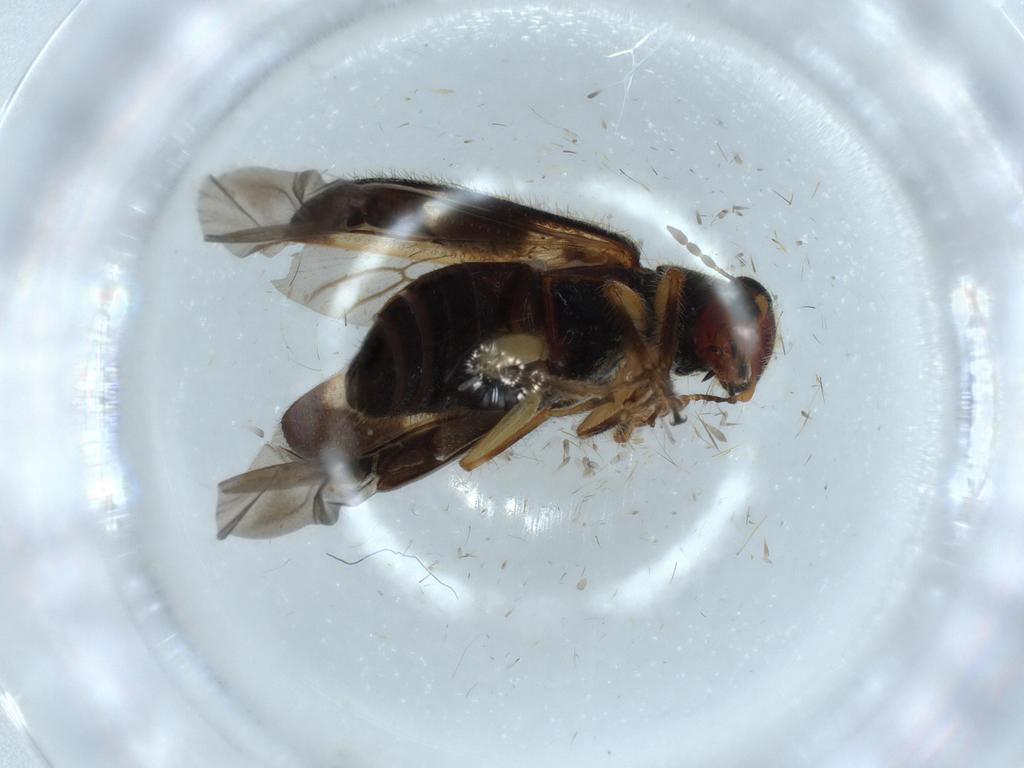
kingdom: Animalia
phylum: Arthropoda
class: Insecta
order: Coleoptera
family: Cleridae
